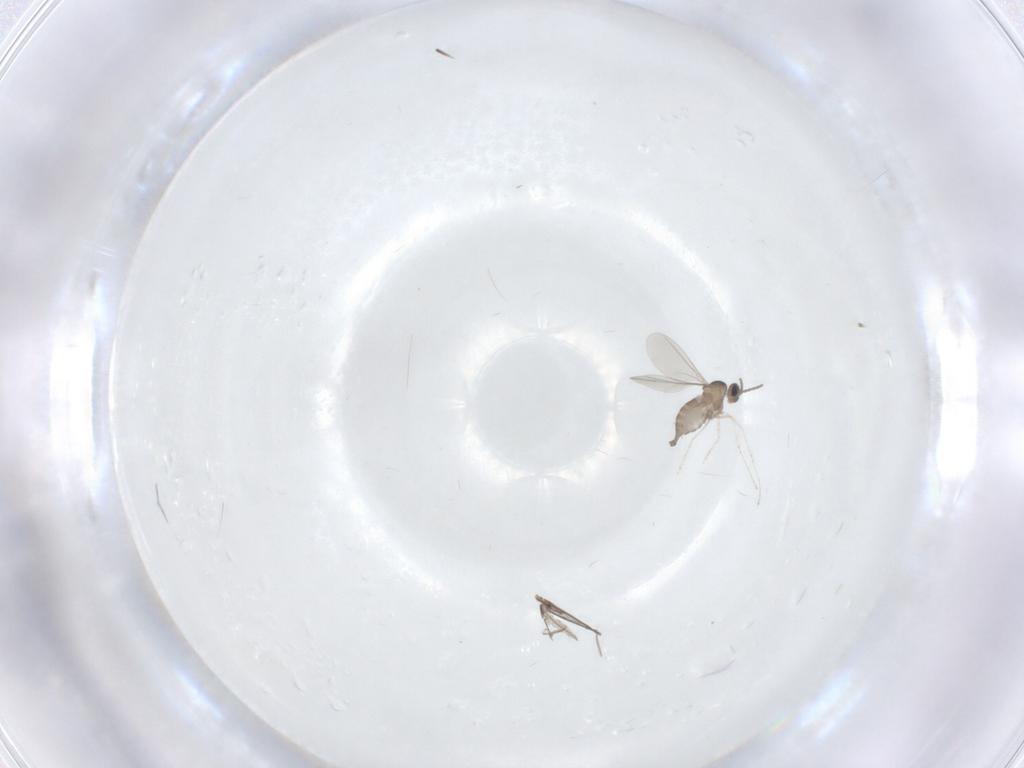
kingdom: Animalia
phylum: Arthropoda
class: Insecta
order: Diptera
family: Cecidomyiidae
